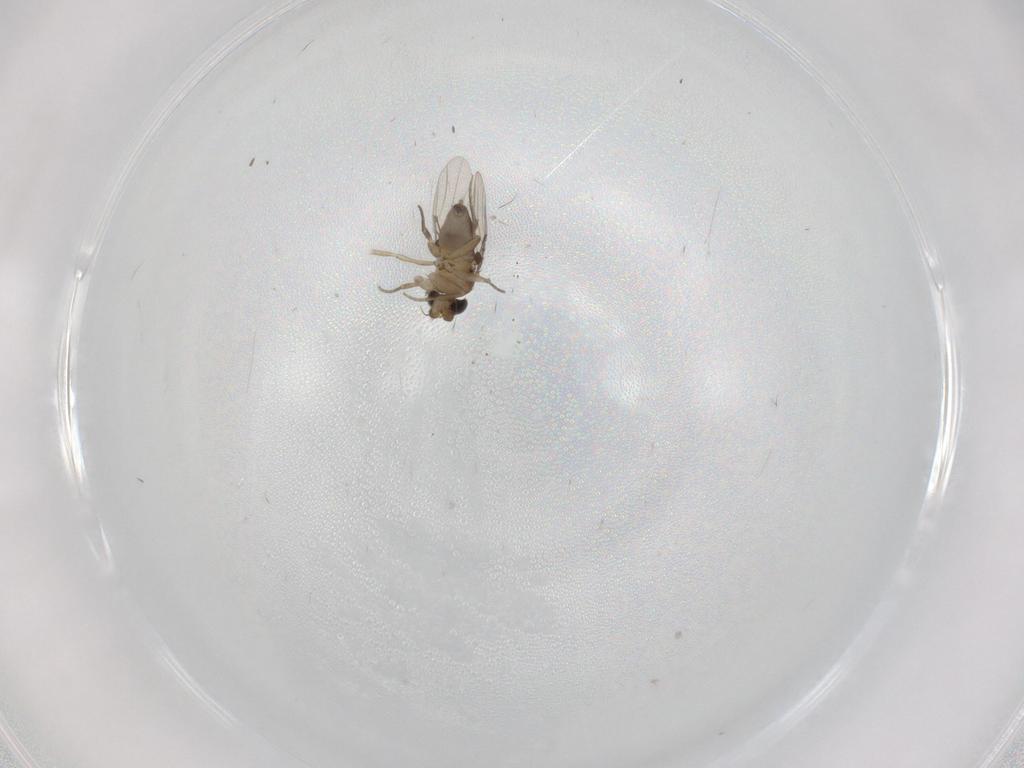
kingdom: Animalia
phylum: Arthropoda
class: Insecta
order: Diptera
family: Phoridae
